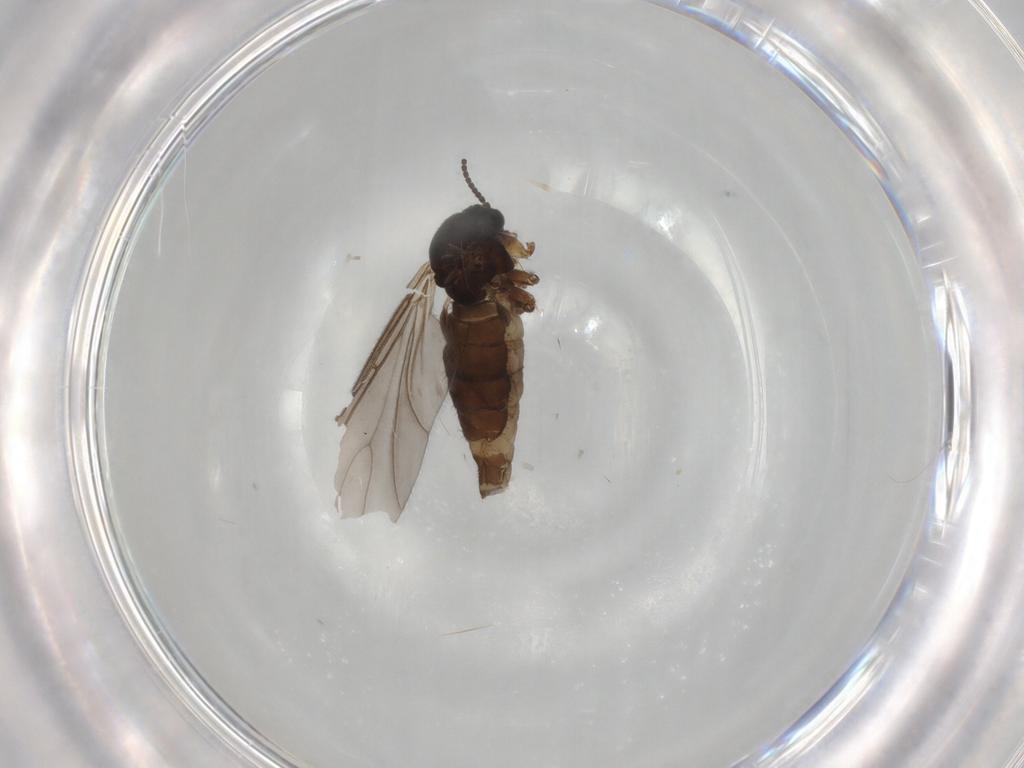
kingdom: Animalia
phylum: Arthropoda
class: Insecta
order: Diptera
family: Sciaridae
